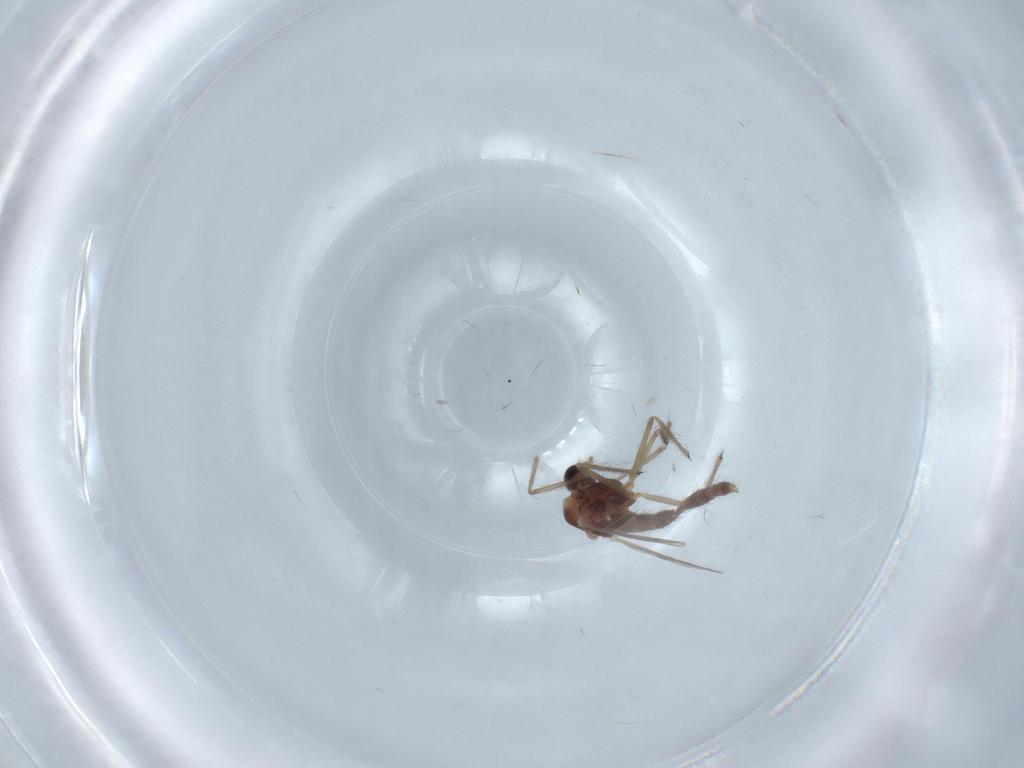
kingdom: Animalia
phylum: Arthropoda
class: Insecta
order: Diptera
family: Chironomidae
